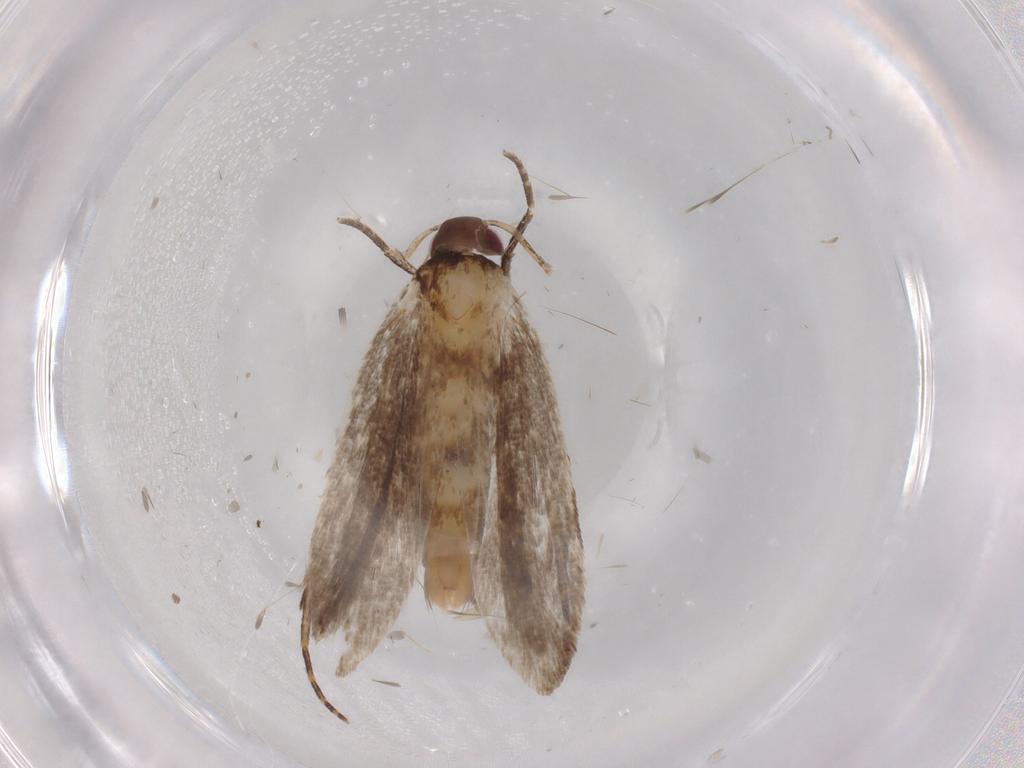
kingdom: Animalia
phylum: Arthropoda
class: Insecta
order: Lepidoptera
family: Gelechiidae
